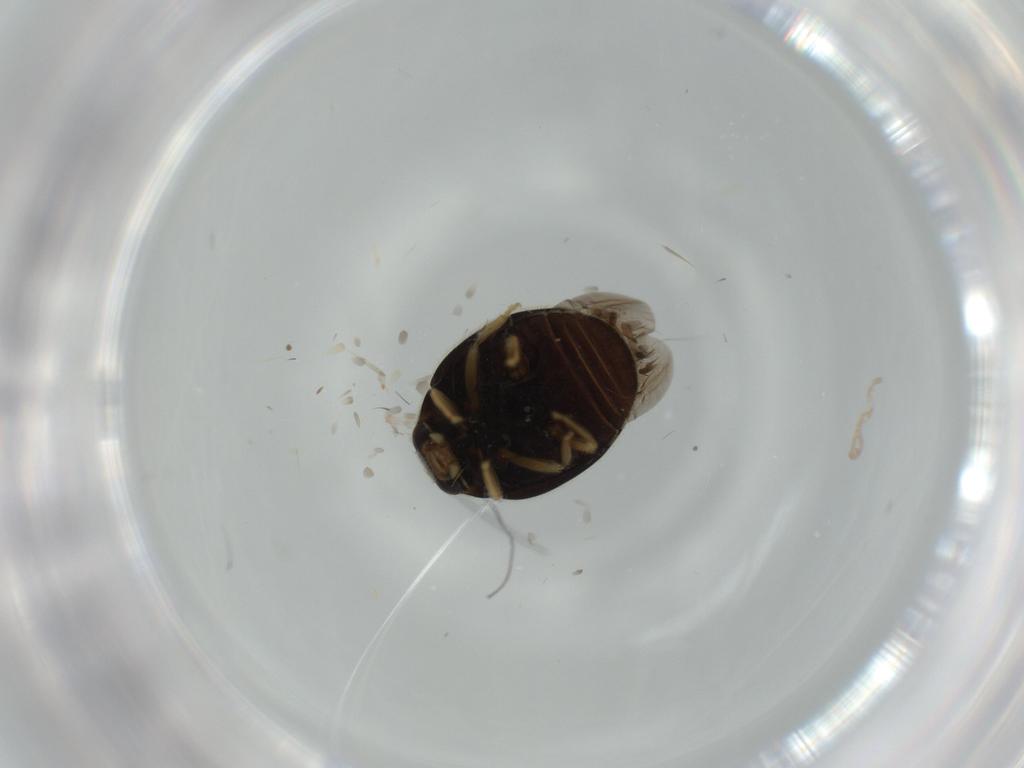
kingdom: Animalia
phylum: Arthropoda
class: Insecta
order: Coleoptera
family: Coccinellidae
